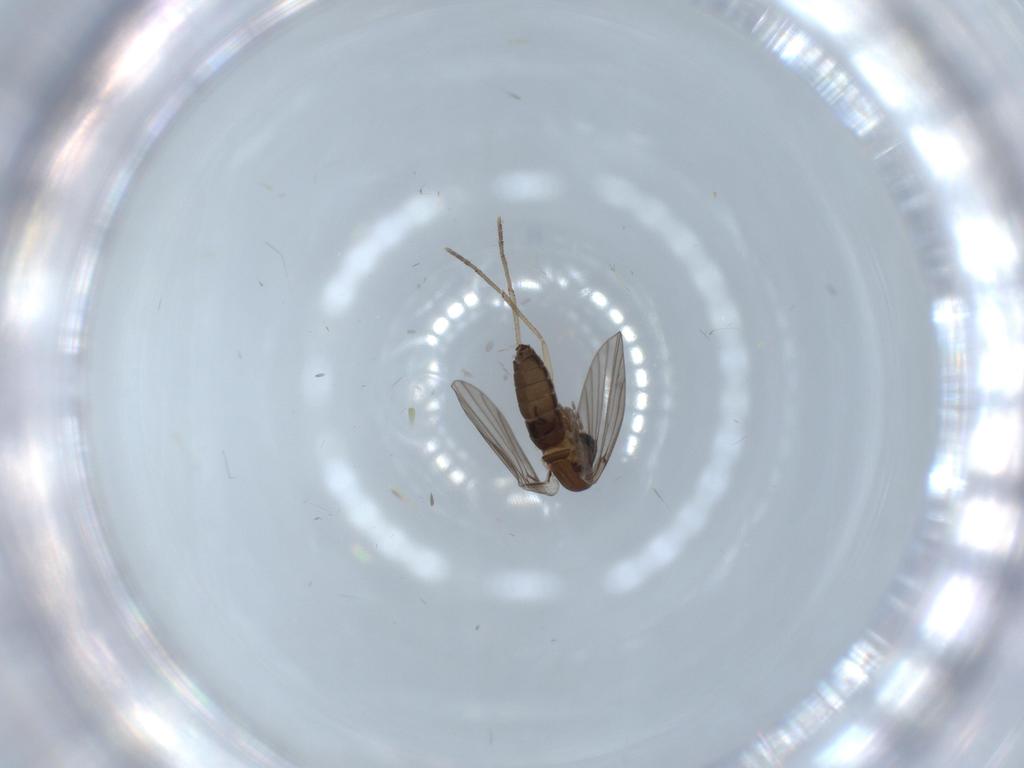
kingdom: Animalia
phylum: Arthropoda
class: Insecta
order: Diptera
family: Psychodidae
